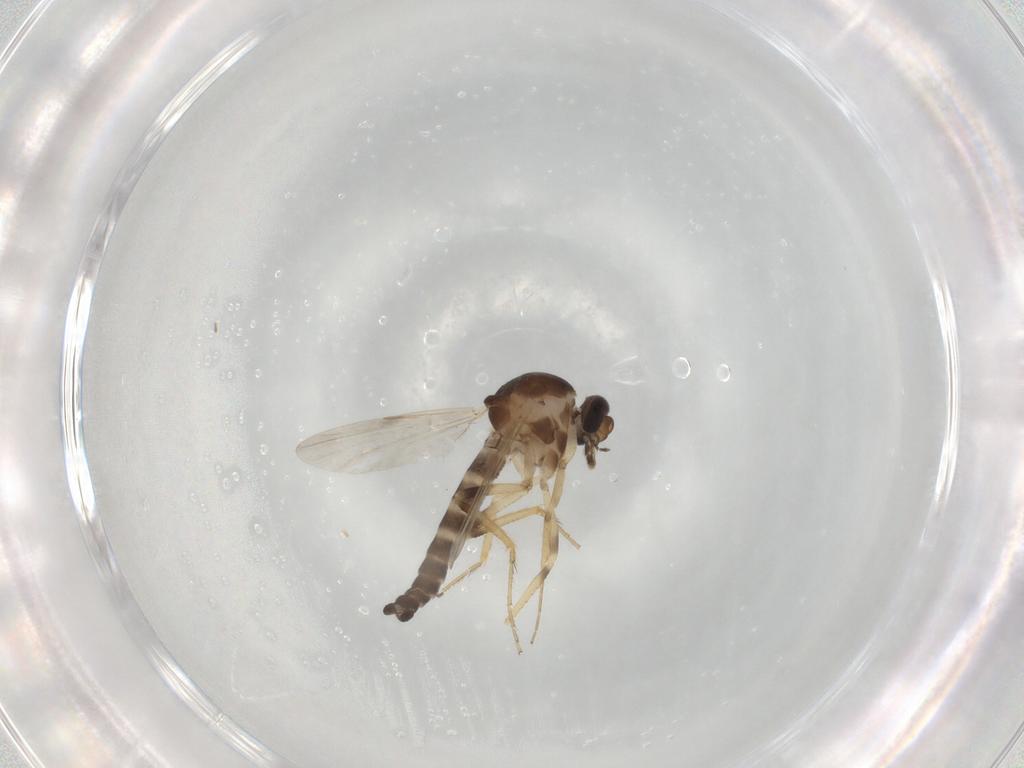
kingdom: Animalia
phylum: Arthropoda
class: Insecta
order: Diptera
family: Ceratopogonidae
